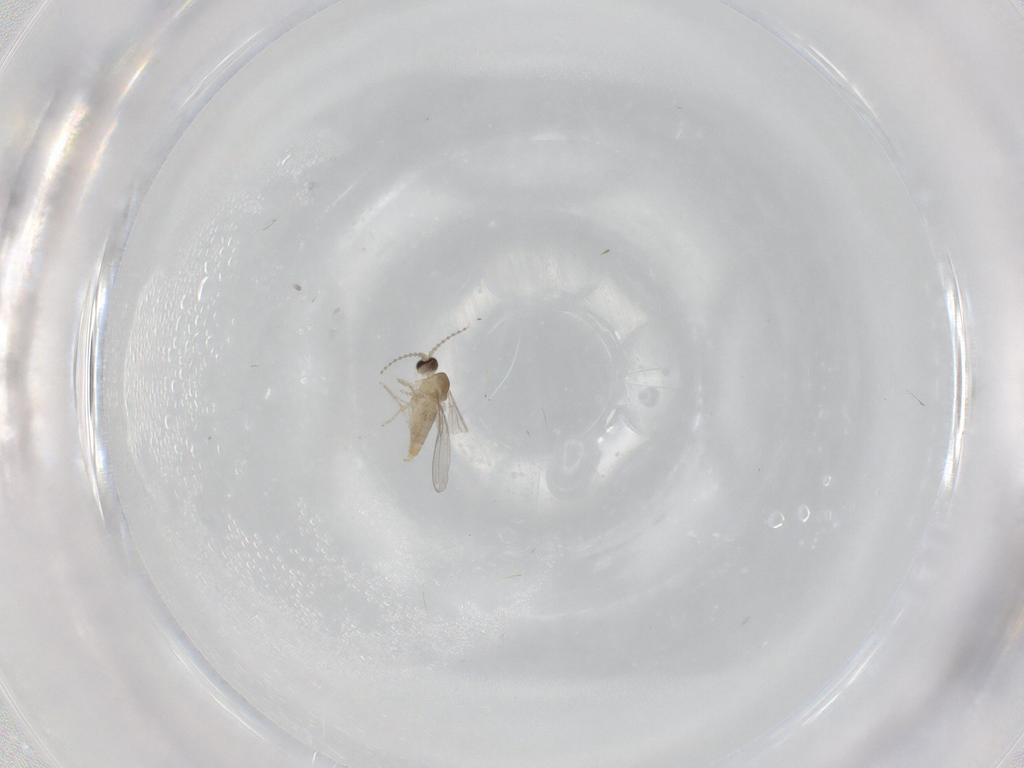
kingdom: Animalia
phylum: Arthropoda
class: Insecta
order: Diptera
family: Cecidomyiidae
